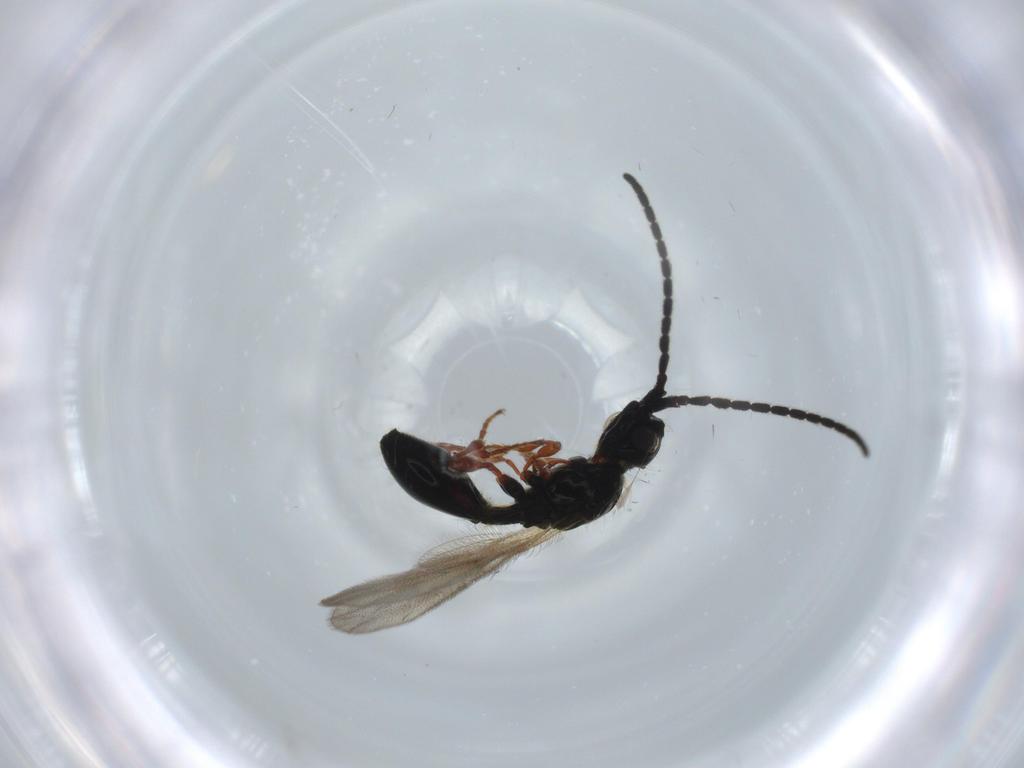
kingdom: Animalia
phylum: Arthropoda
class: Insecta
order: Hymenoptera
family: Diapriidae
